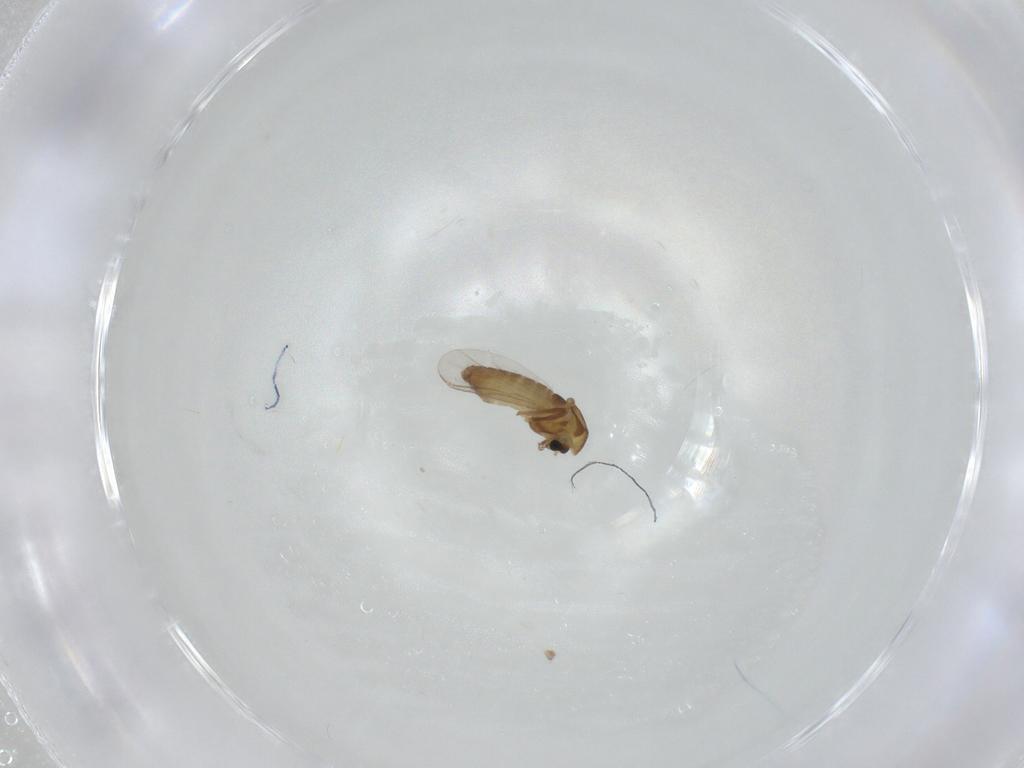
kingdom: Animalia
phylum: Arthropoda
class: Insecta
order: Diptera
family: Chironomidae
